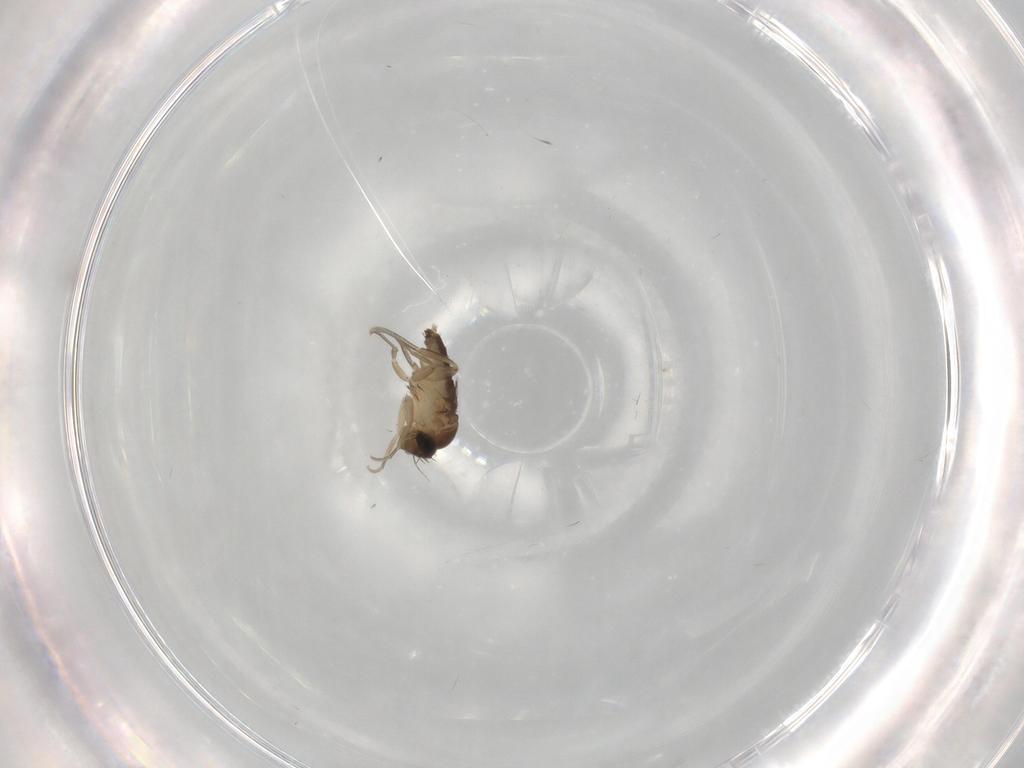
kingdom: Animalia
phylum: Arthropoda
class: Insecta
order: Diptera
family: Phoridae
